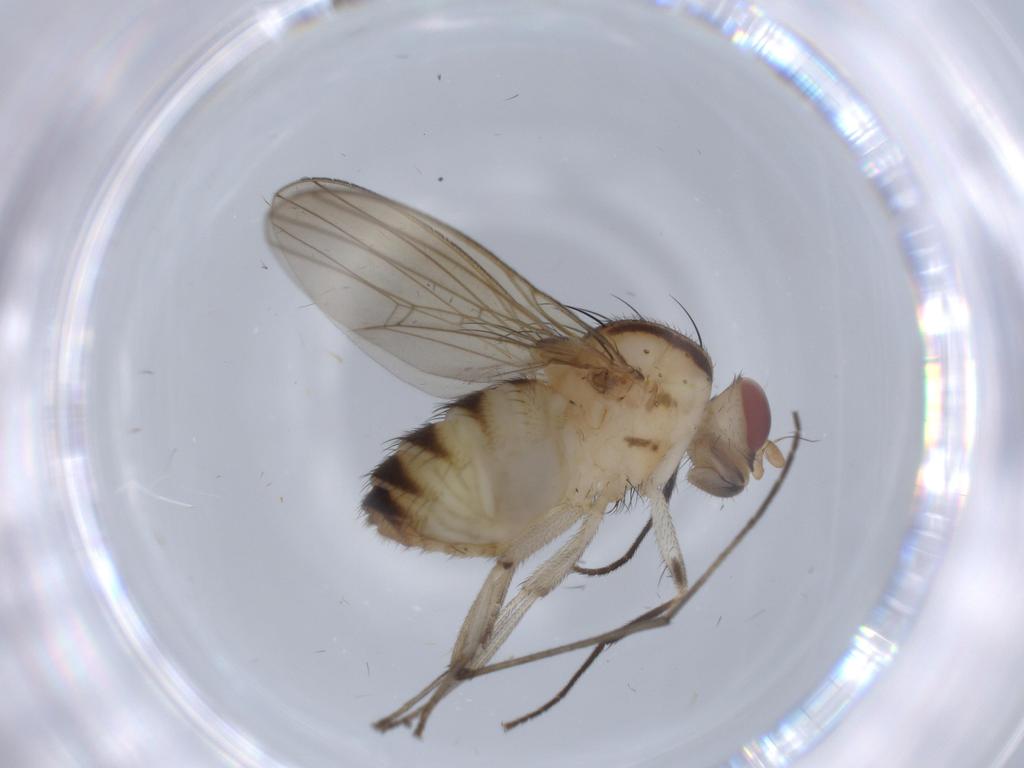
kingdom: Animalia
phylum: Arthropoda
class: Insecta
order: Diptera
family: Sciaridae
